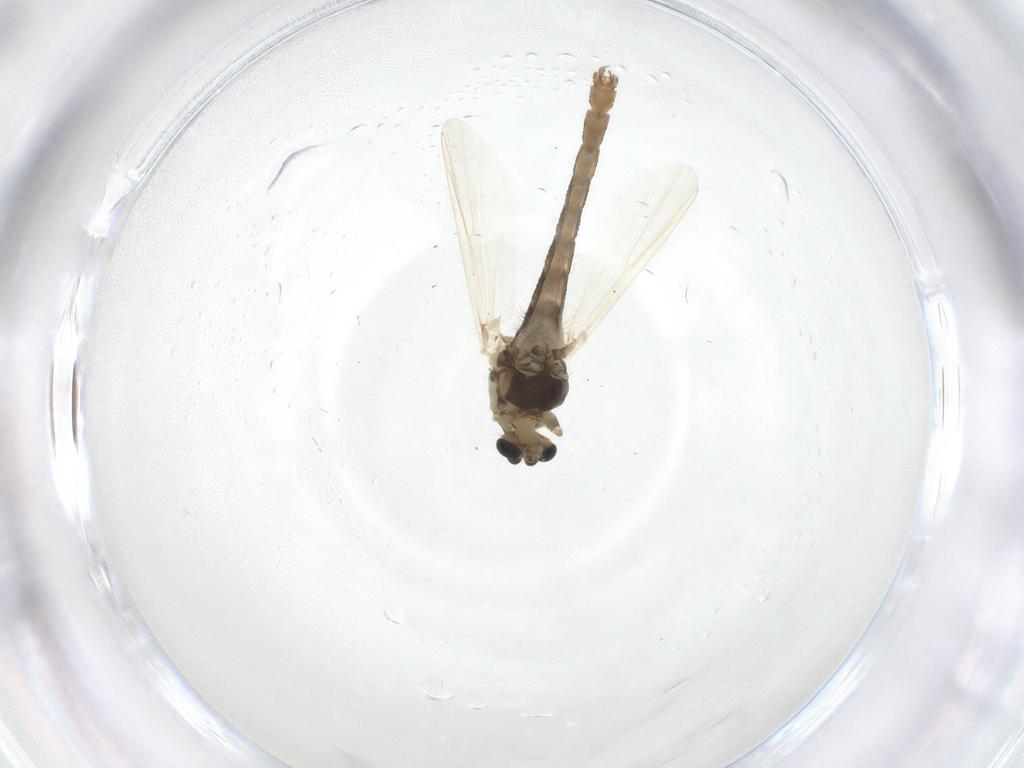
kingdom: Animalia
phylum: Arthropoda
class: Insecta
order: Diptera
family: Chironomidae
